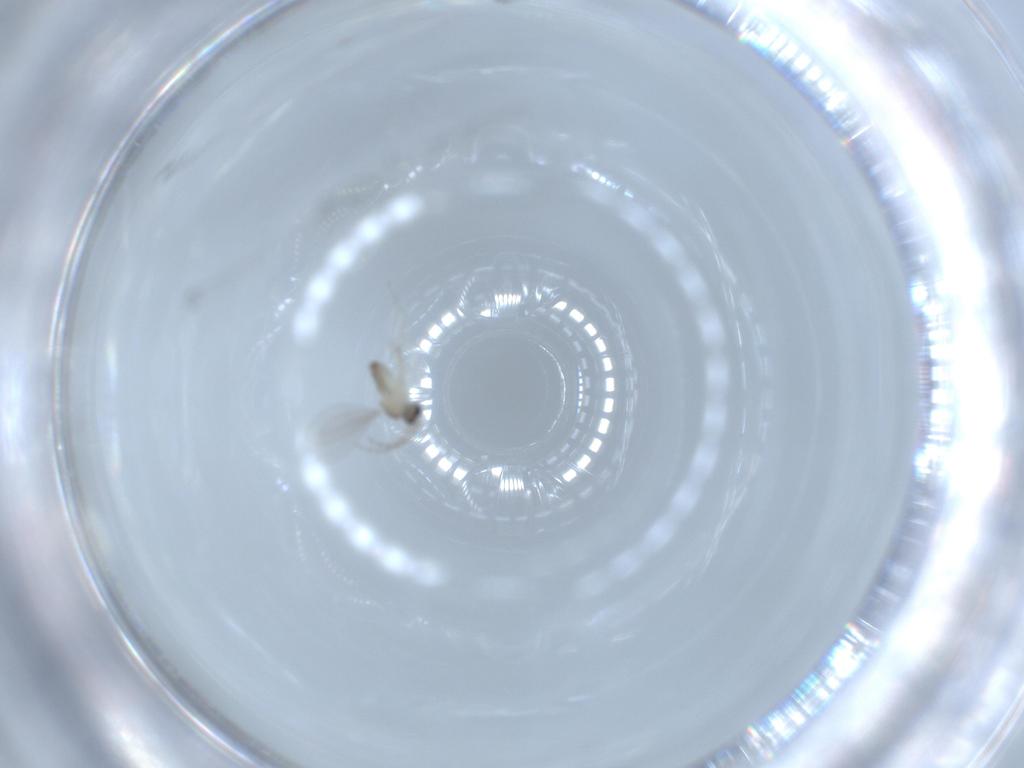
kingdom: Animalia
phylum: Arthropoda
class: Insecta
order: Diptera
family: Cecidomyiidae
